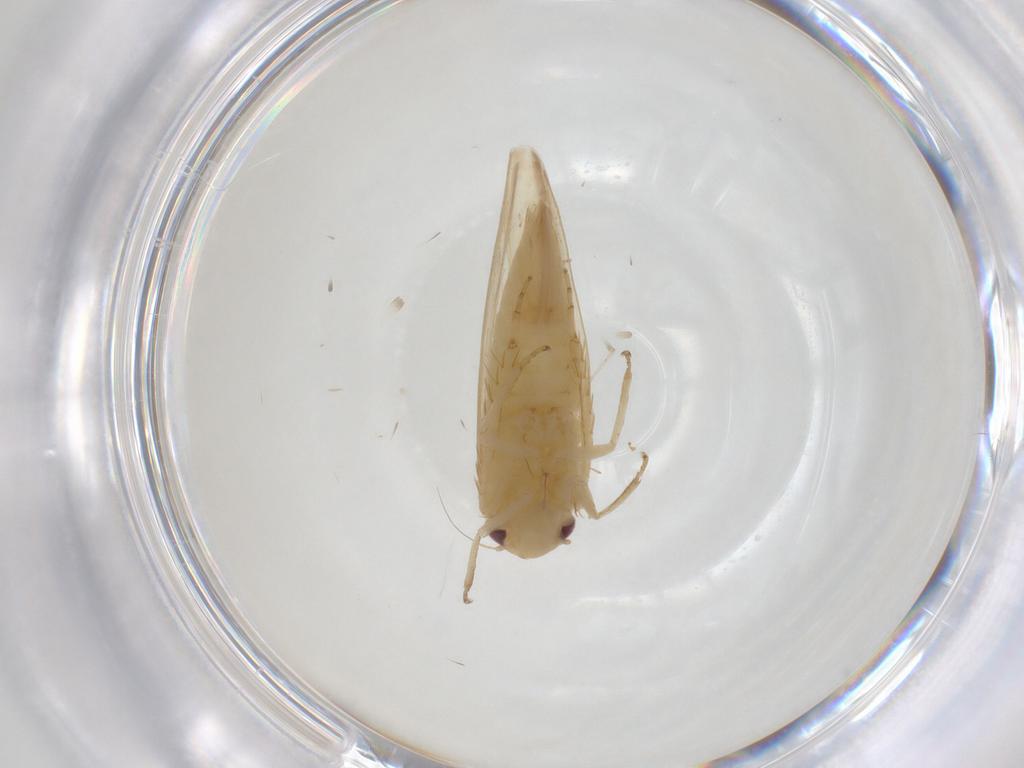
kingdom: Animalia
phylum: Arthropoda
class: Insecta
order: Hemiptera
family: Cicadellidae
